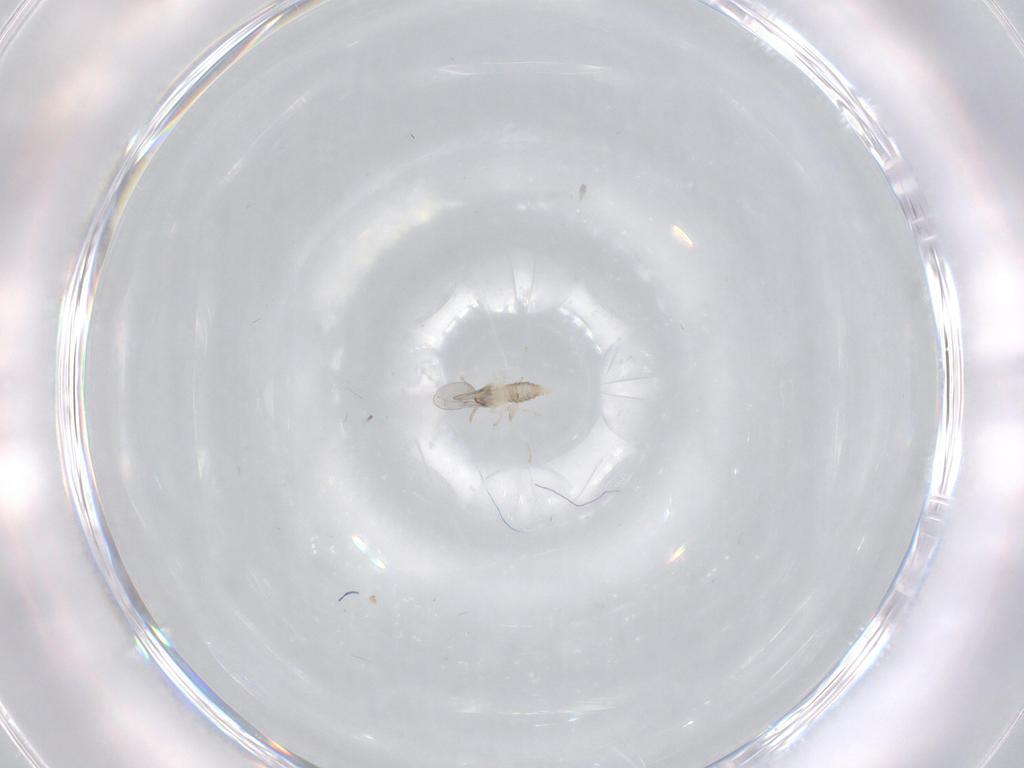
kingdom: Animalia
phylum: Arthropoda
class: Insecta
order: Diptera
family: Cecidomyiidae
